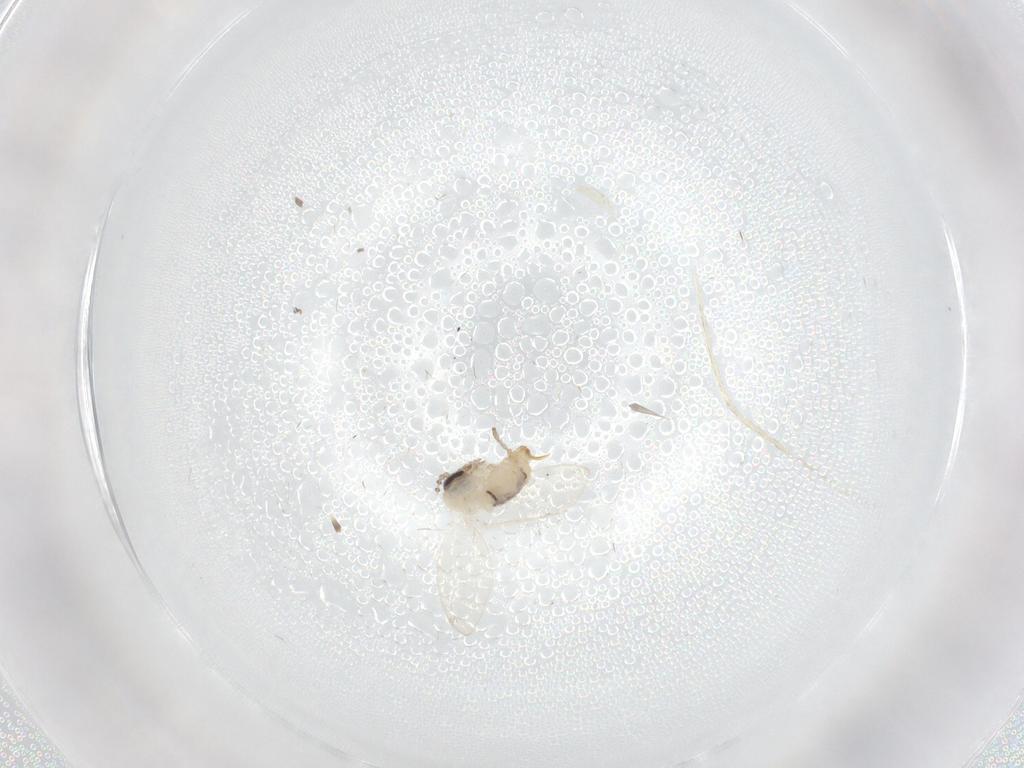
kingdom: Animalia
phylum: Arthropoda
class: Insecta
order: Diptera
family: Psychodidae
